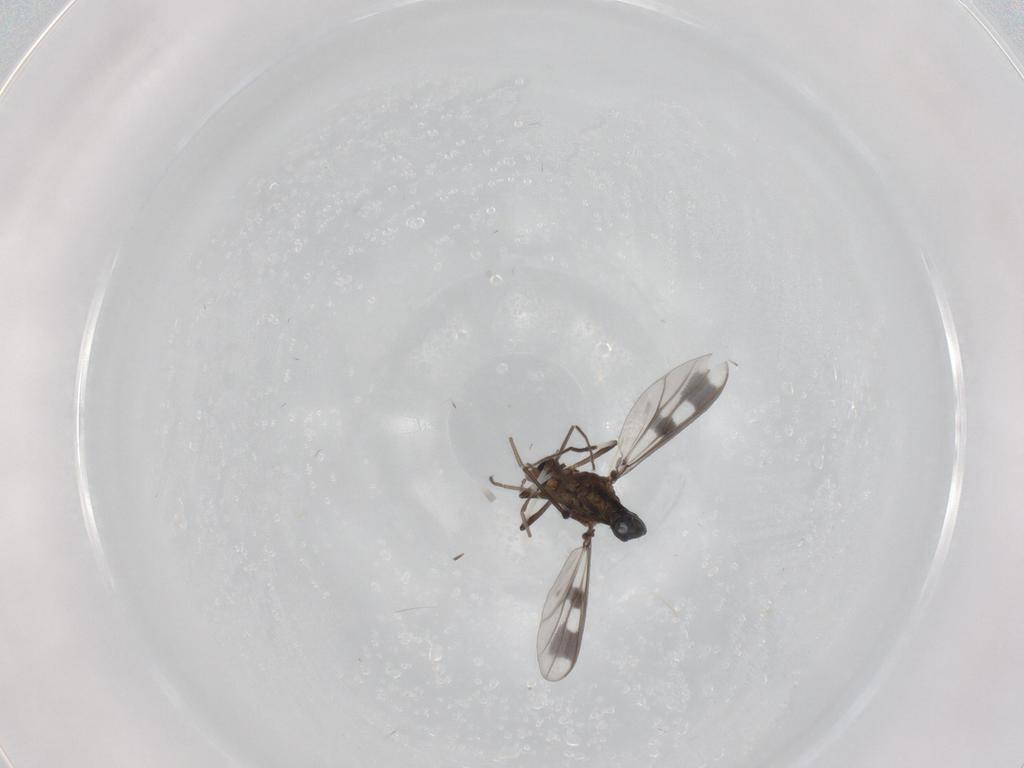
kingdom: Animalia
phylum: Arthropoda
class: Insecta
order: Diptera
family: Chironomidae
